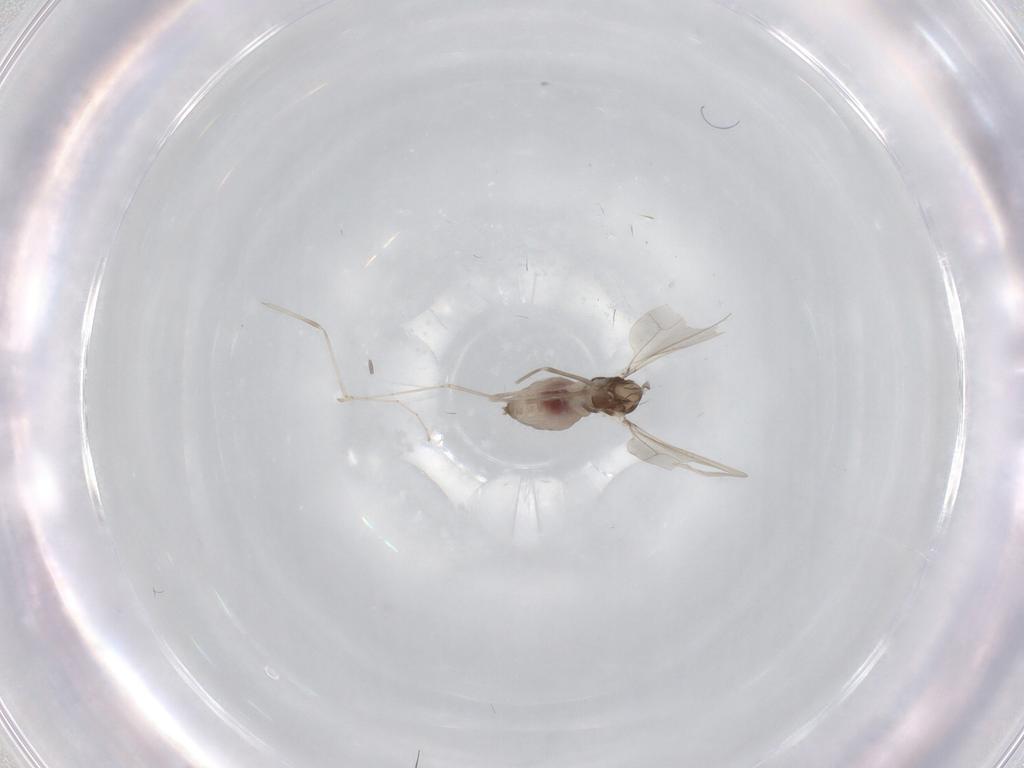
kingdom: Animalia
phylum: Arthropoda
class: Insecta
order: Diptera
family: Cecidomyiidae
